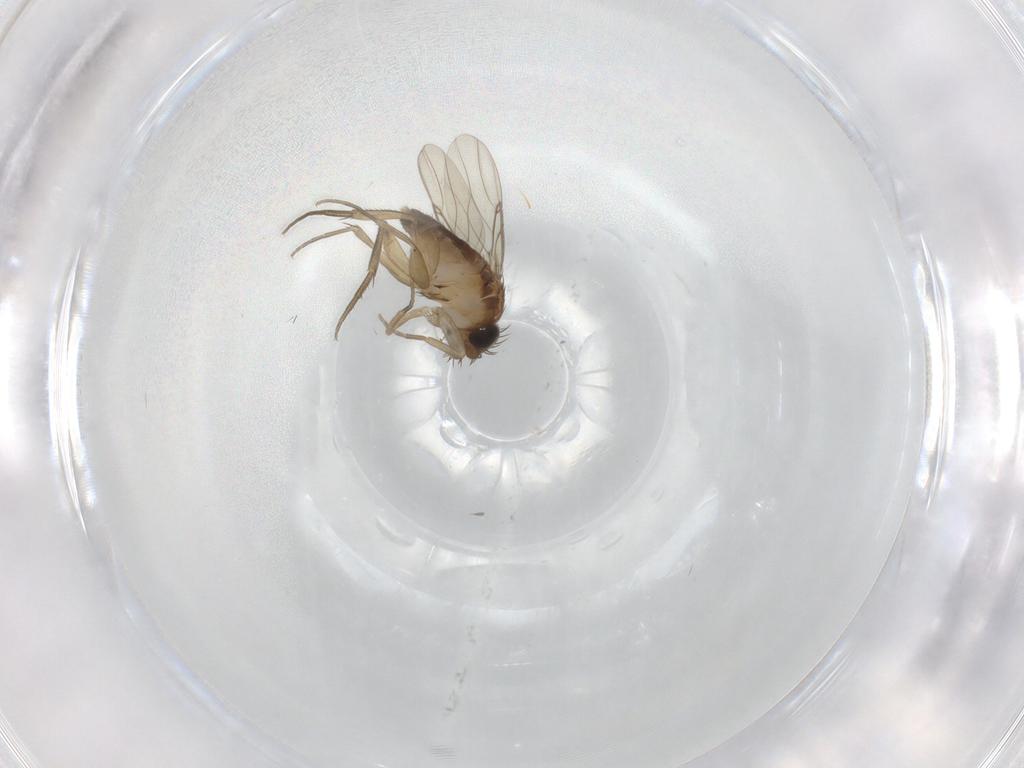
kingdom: Animalia
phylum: Arthropoda
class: Insecta
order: Diptera
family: Phoridae
